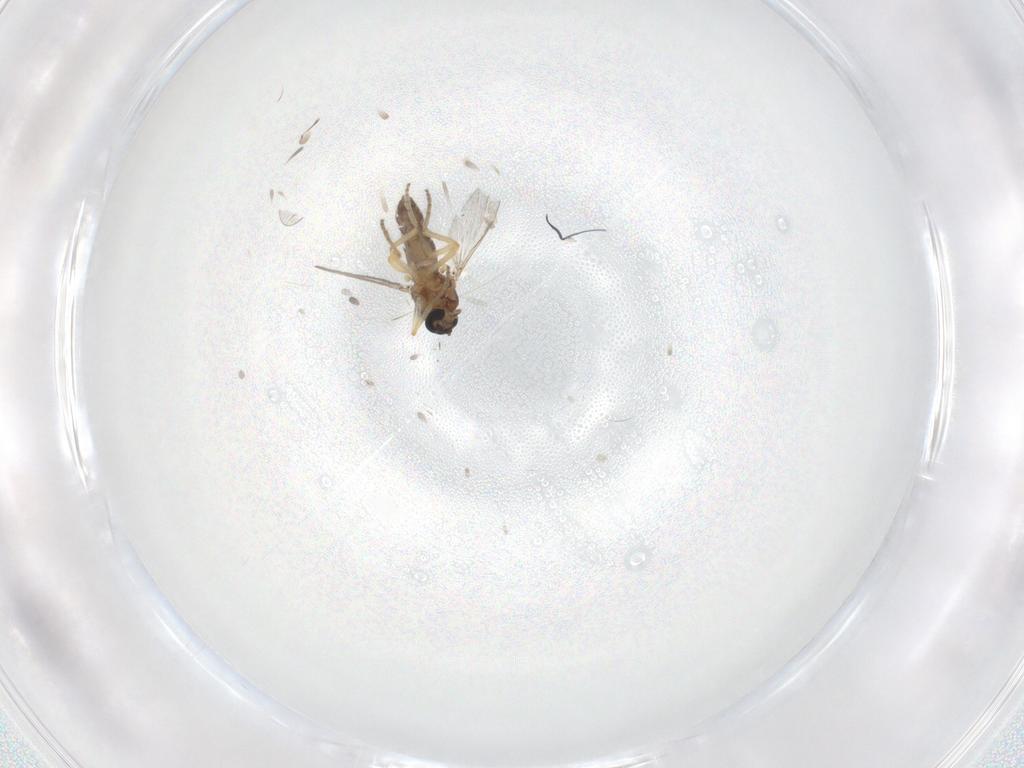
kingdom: Animalia
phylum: Arthropoda
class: Insecta
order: Diptera
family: Ceratopogonidae
